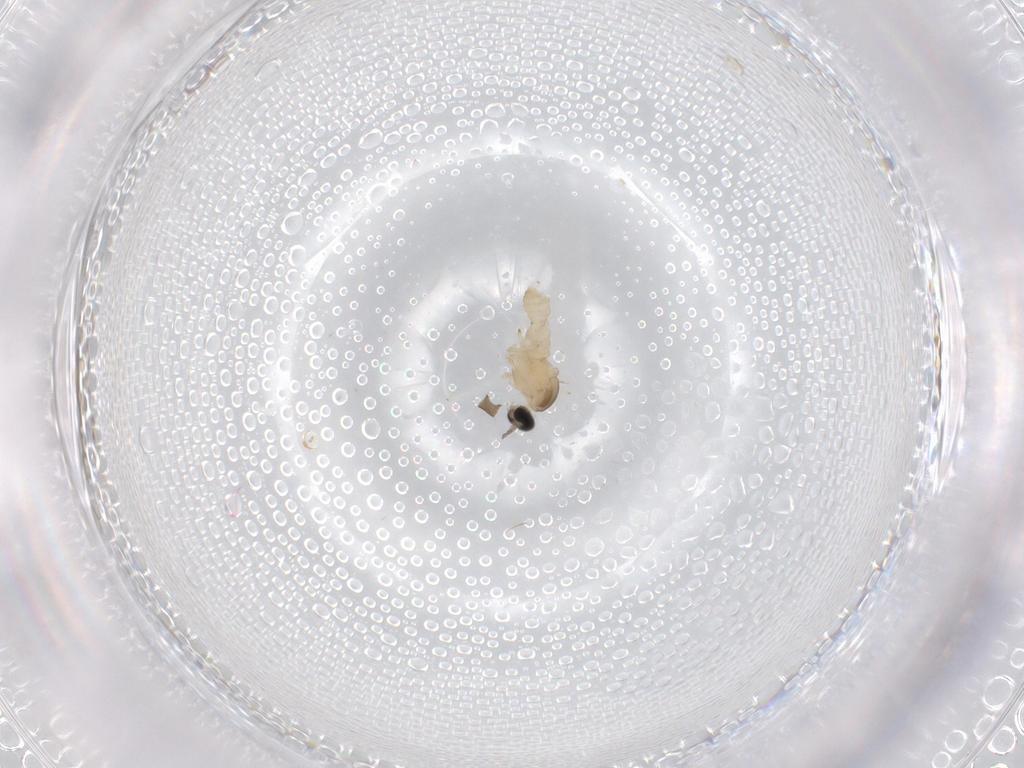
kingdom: Animalia
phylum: Arthropoda
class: Insecta
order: Diptera
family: Cecidomyiidae
